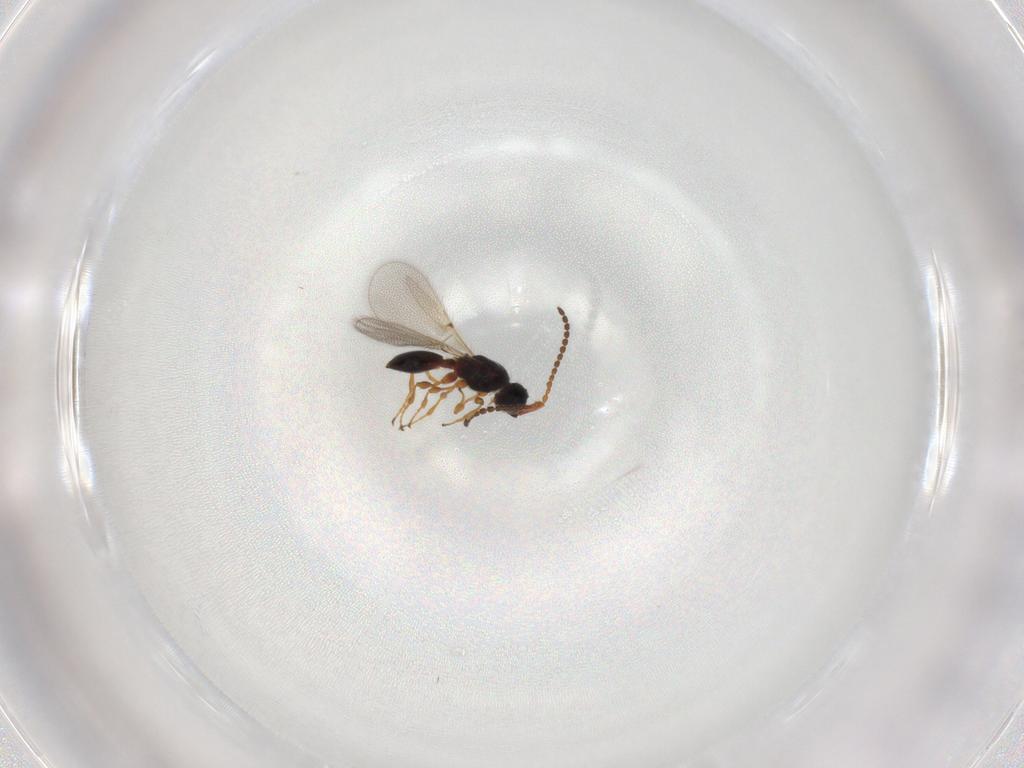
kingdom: Animalia
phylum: Arthropoda
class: Insecta
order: Hymenoptera
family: Diapriidae
